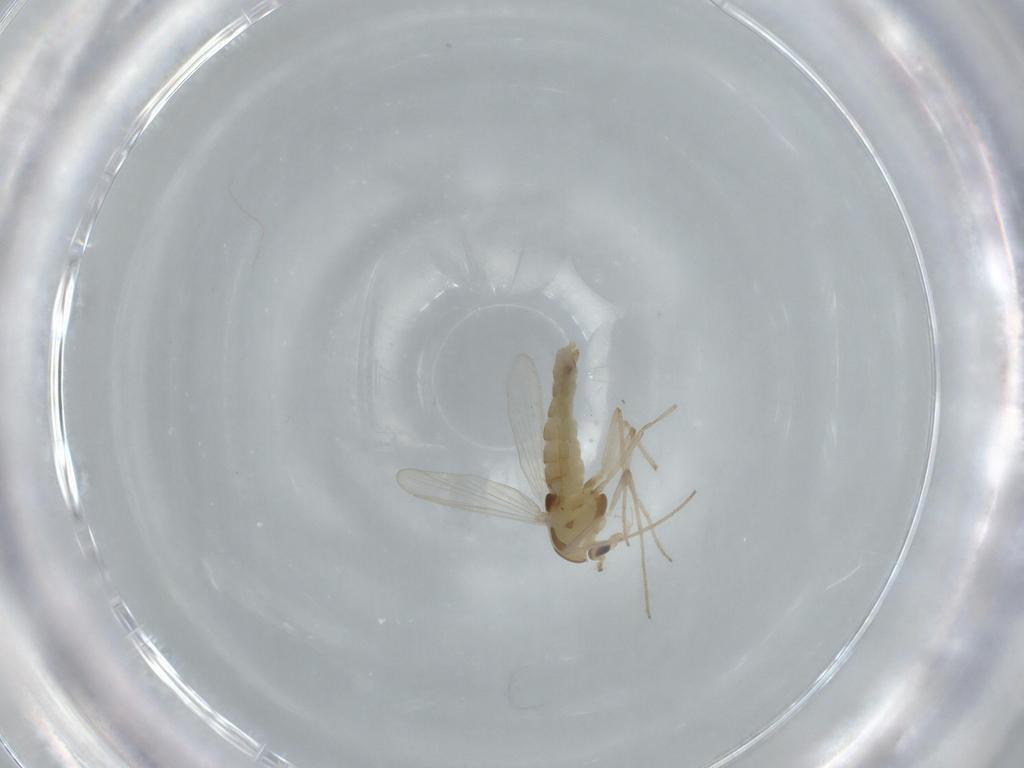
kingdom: Animalia
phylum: Arthropoda
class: Insecta
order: Diptera
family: Chironomidae
